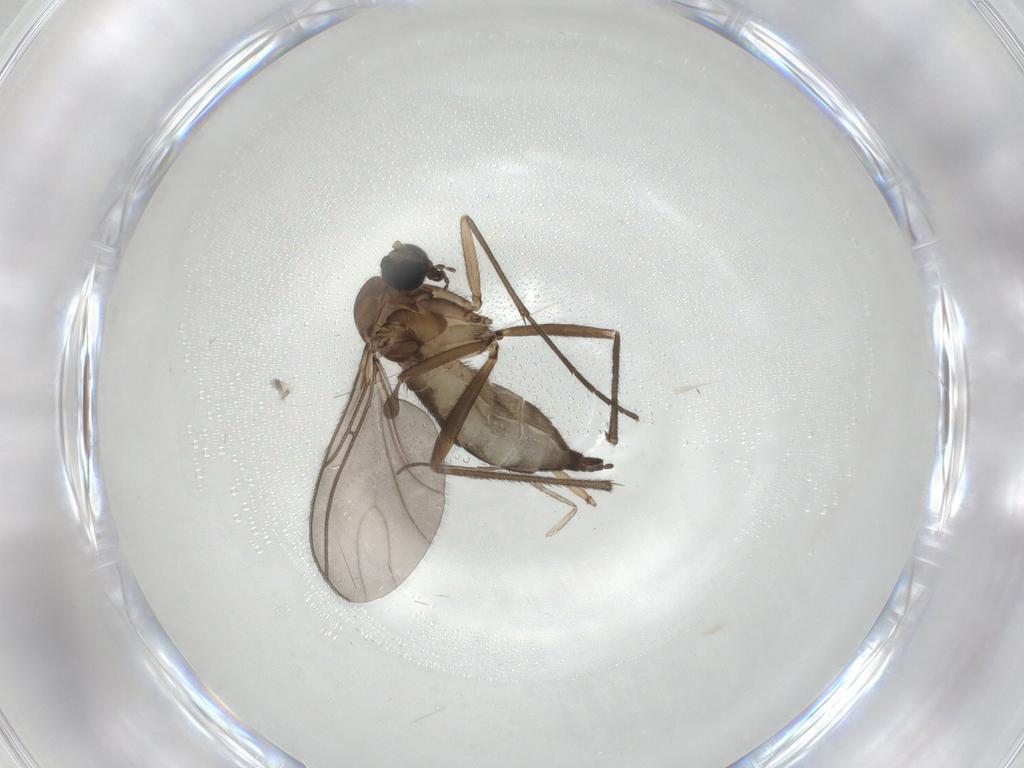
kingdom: Animalia
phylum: Arthropoda
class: Insecta
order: Diptera
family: Sciaridae
